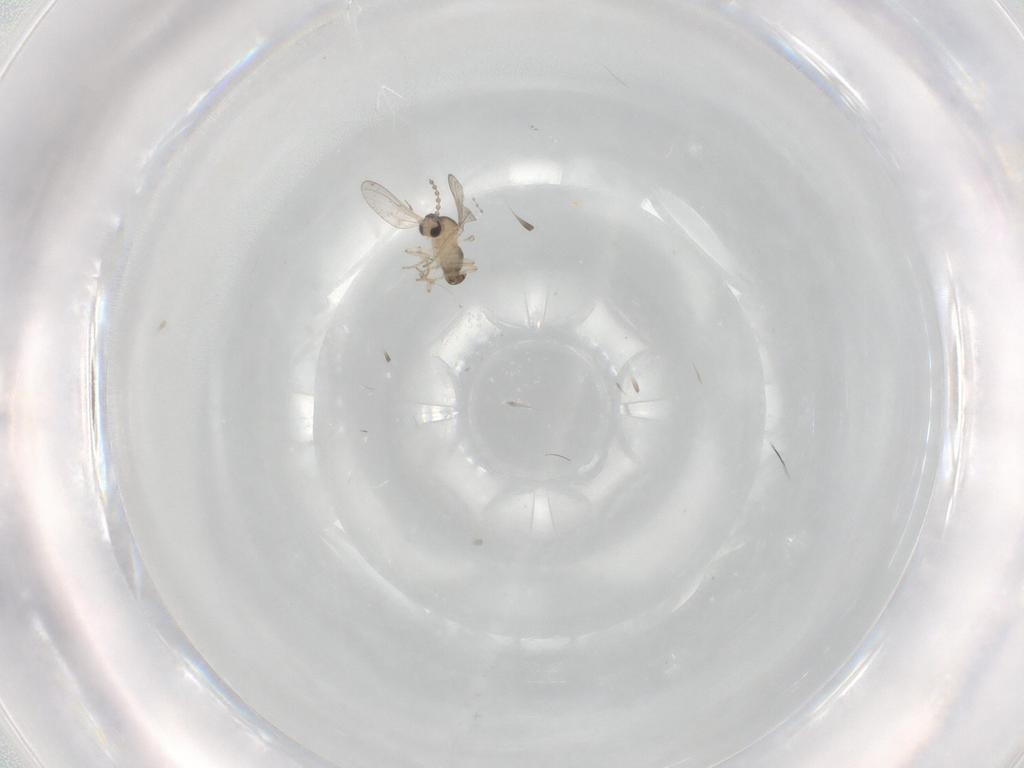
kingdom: Animalia
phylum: Arthropoda
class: Insecta
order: Diptera
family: Cecidomyiidae
